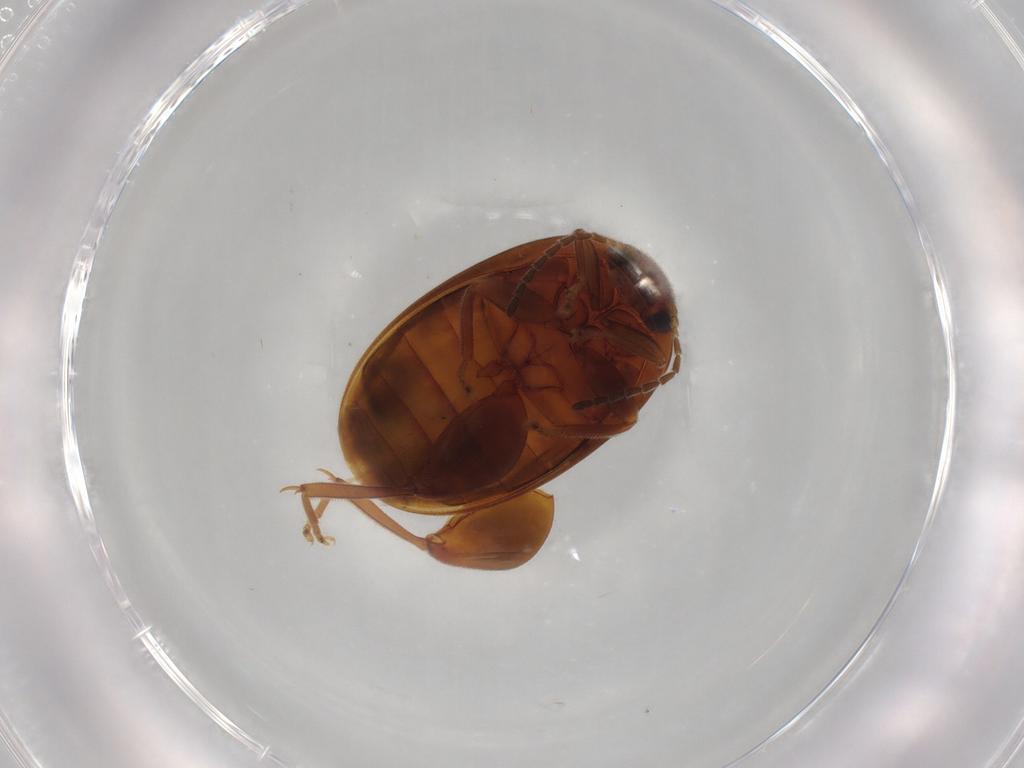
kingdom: Animalia
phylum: Arthropoda
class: Insecta
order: Coleoptera
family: Scirtidae
